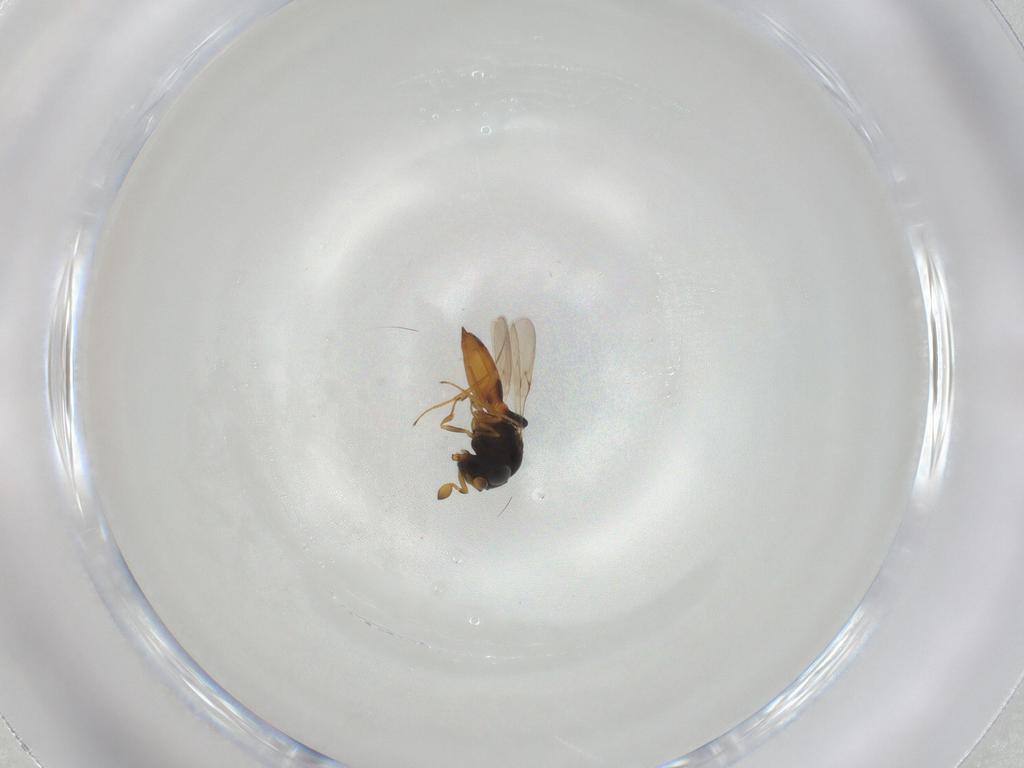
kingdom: Animalia
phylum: Arthropoda
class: Insecta
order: Hymenoptera
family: Scelionidae
